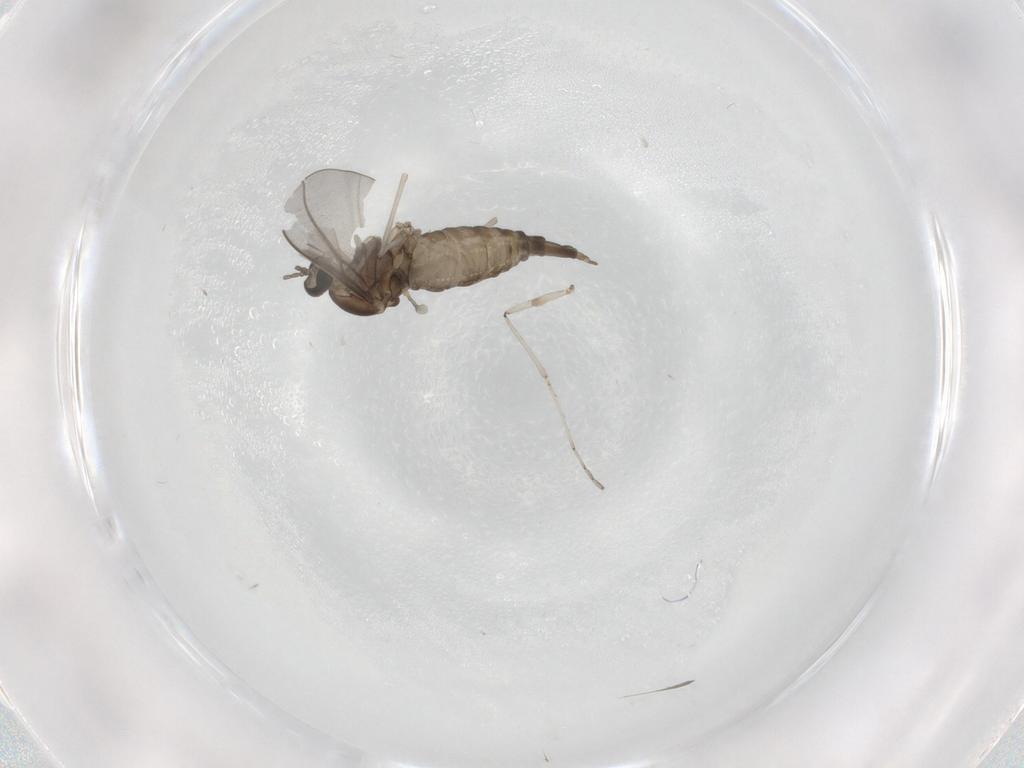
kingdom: Animalia
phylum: Arthropoda
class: Insecta
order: Diptera
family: Cecidomyiidae
